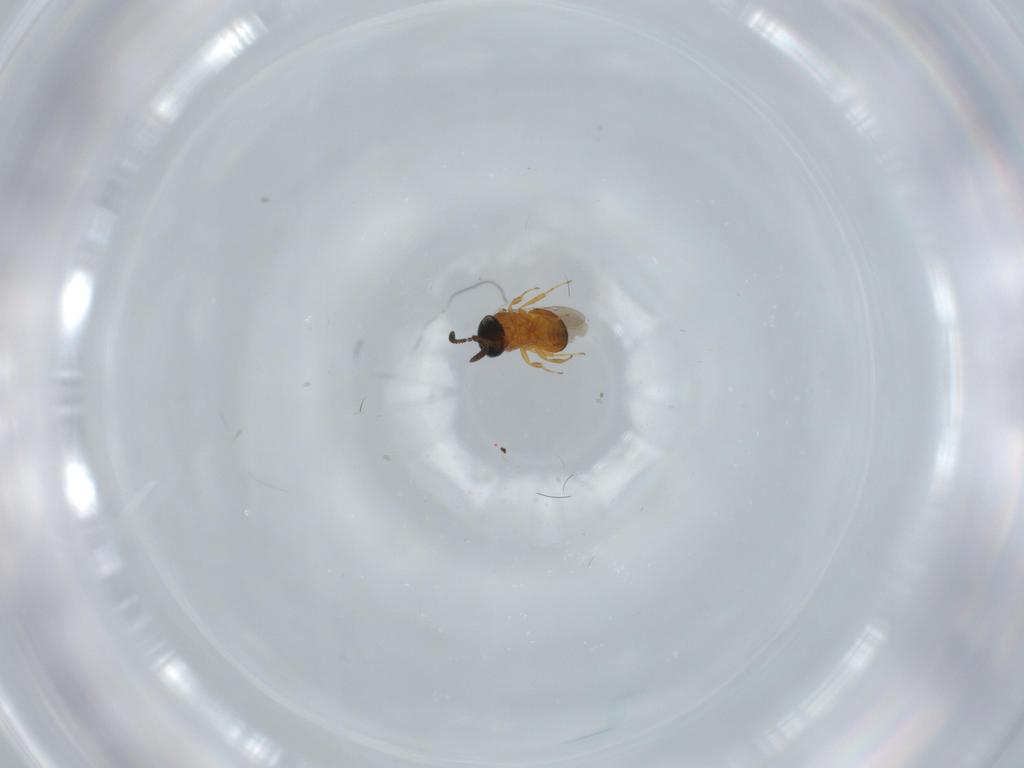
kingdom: Animalia
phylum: Arthropoda
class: Insecta
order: Hymenoptera
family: Scelionidae
